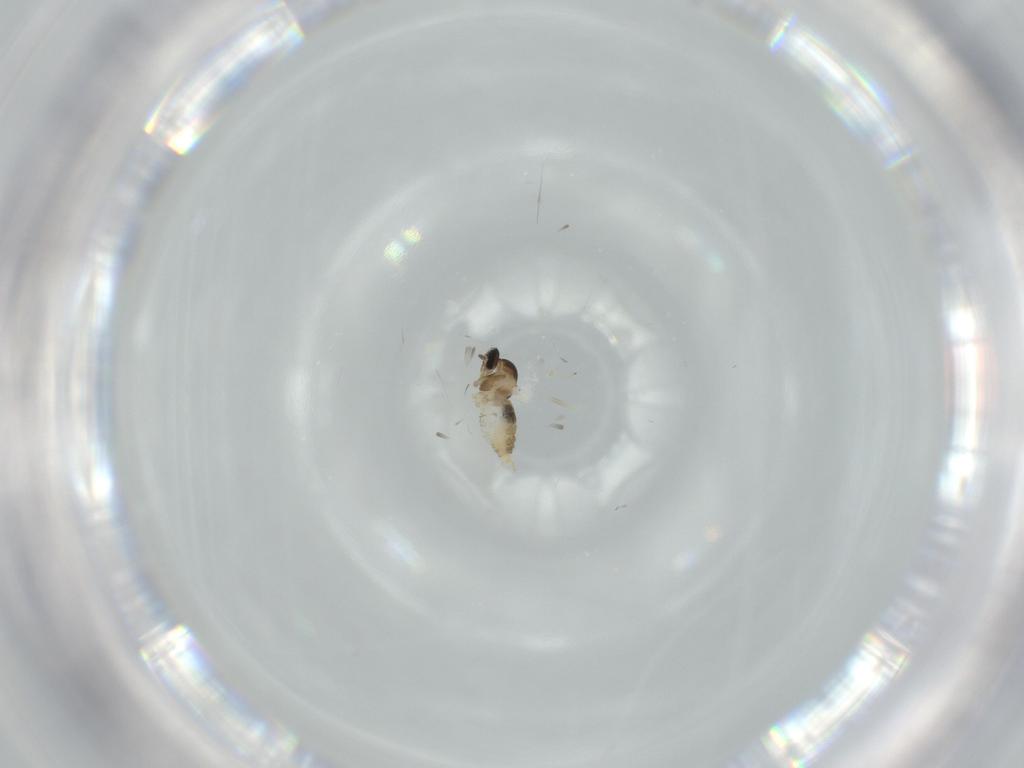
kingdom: Animalia
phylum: Arthropoda
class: Insecta
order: Diptera
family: Cecidomyiidae
